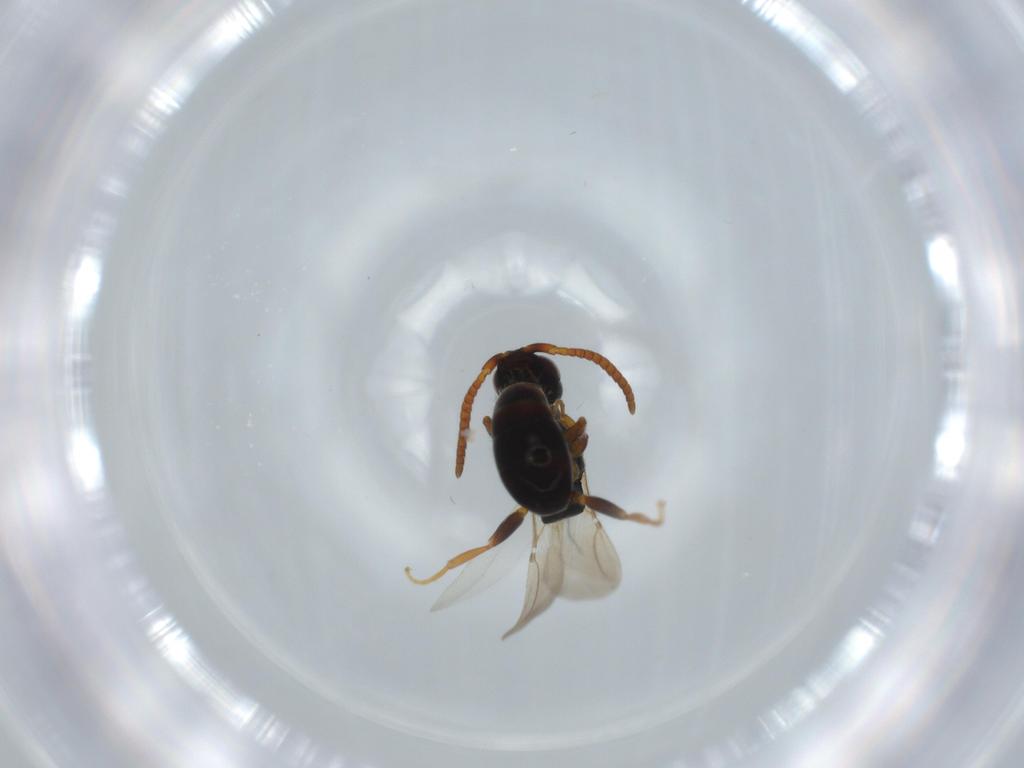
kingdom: Animalia
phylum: Arthropoda
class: Insecta
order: Hymenoptera
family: Bethylidae
